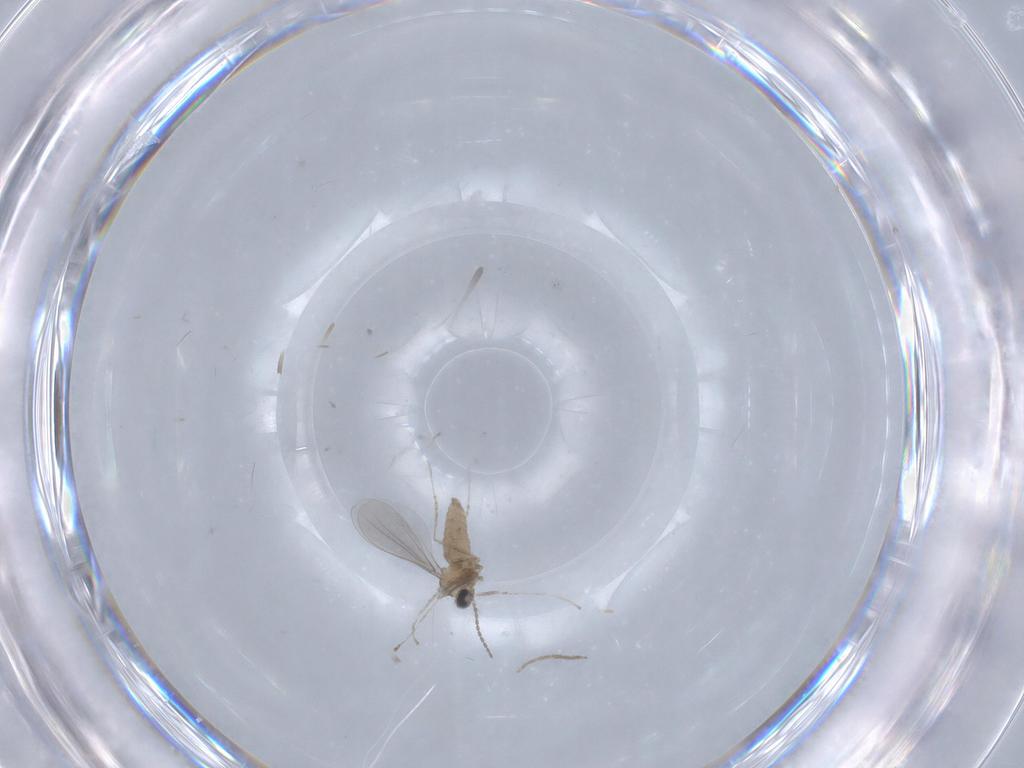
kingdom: Animalia
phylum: Arthropoda
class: Insecta
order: Diptera
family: Cecidomyiidae
